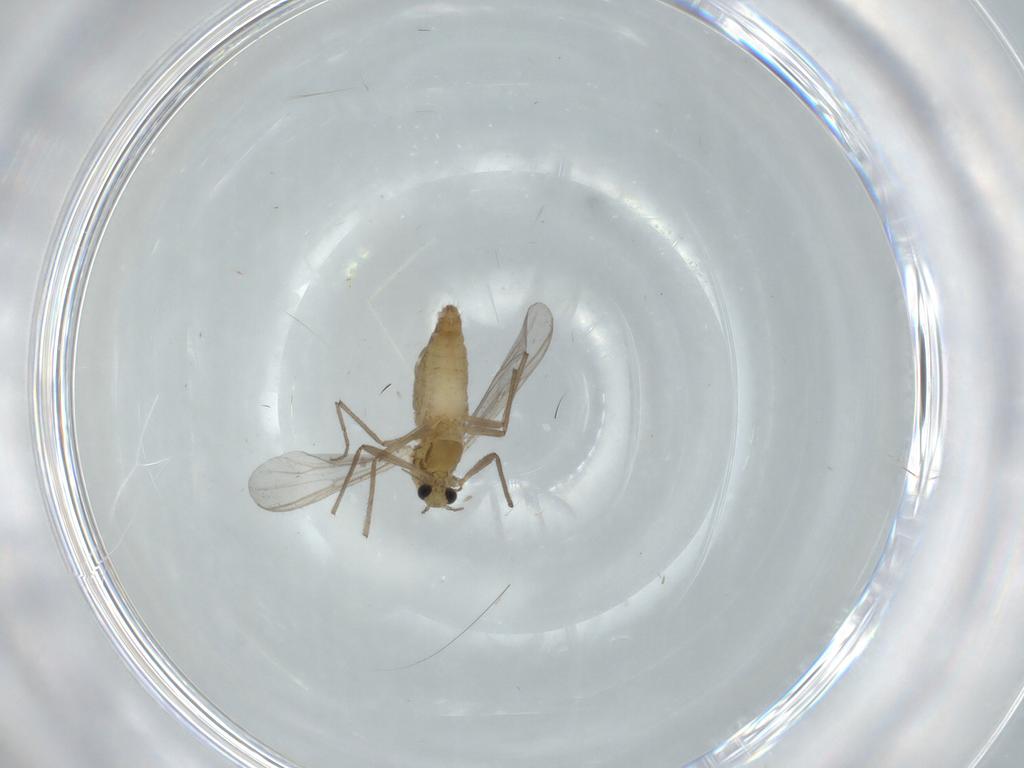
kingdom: Animalia
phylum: Arthropoda
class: Insecta
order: Diptera
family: Chironomidae
